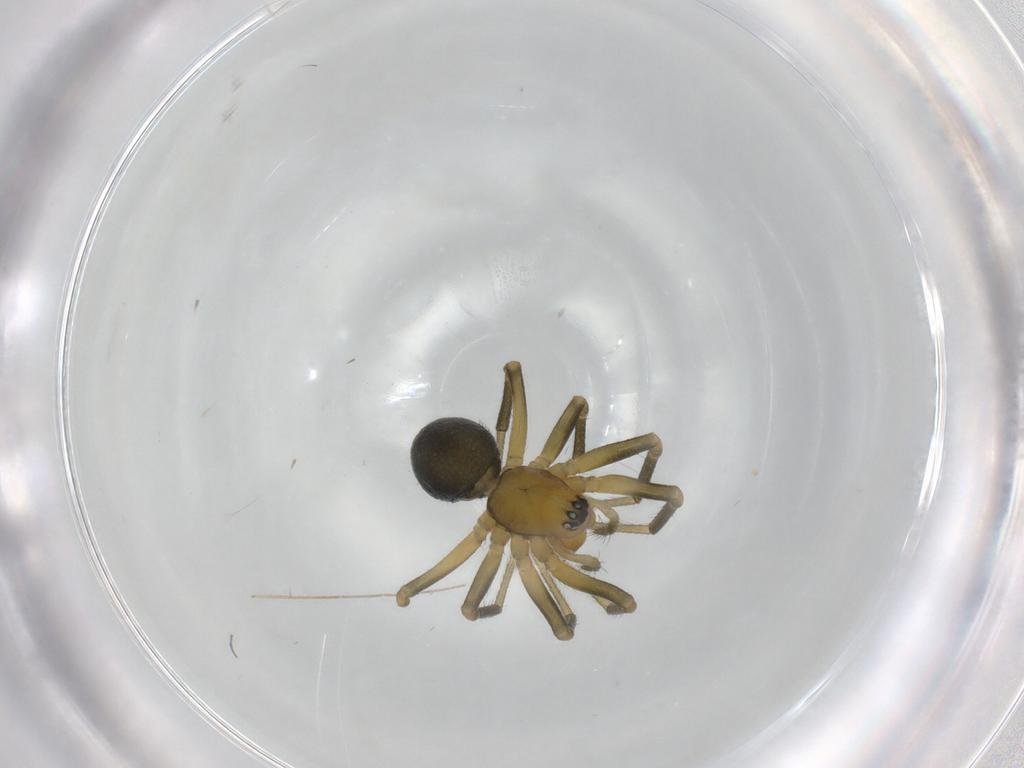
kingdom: Animalia
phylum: Arthropoda
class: Arachnida
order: Araneae
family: Linyphiidae
